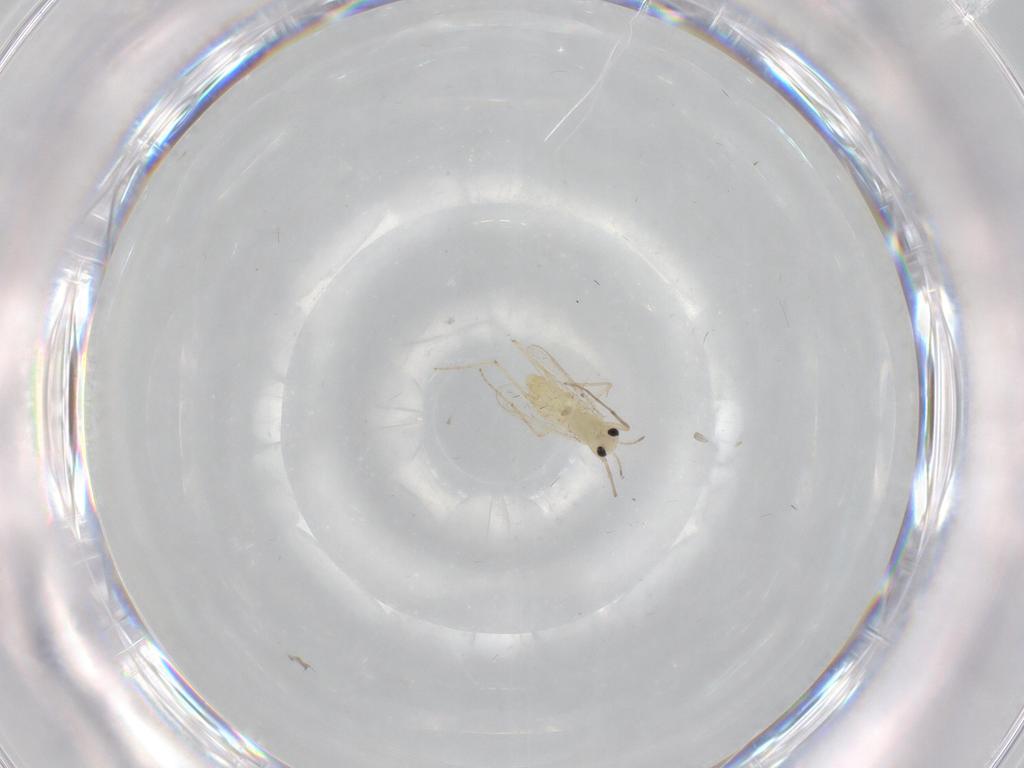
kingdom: Animalia
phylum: Arthropoda
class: Insecta
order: Diptera
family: Chironomidae
